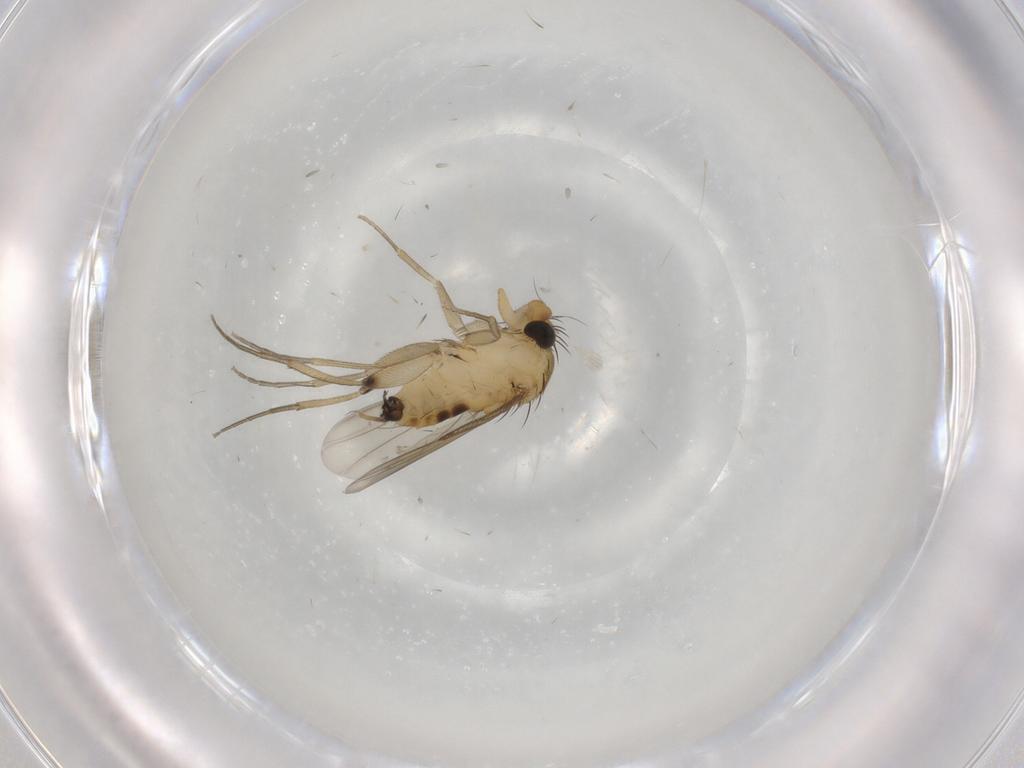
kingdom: Animalia
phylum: Arthropoda
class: Insecta
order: Diptera
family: Phoridae
